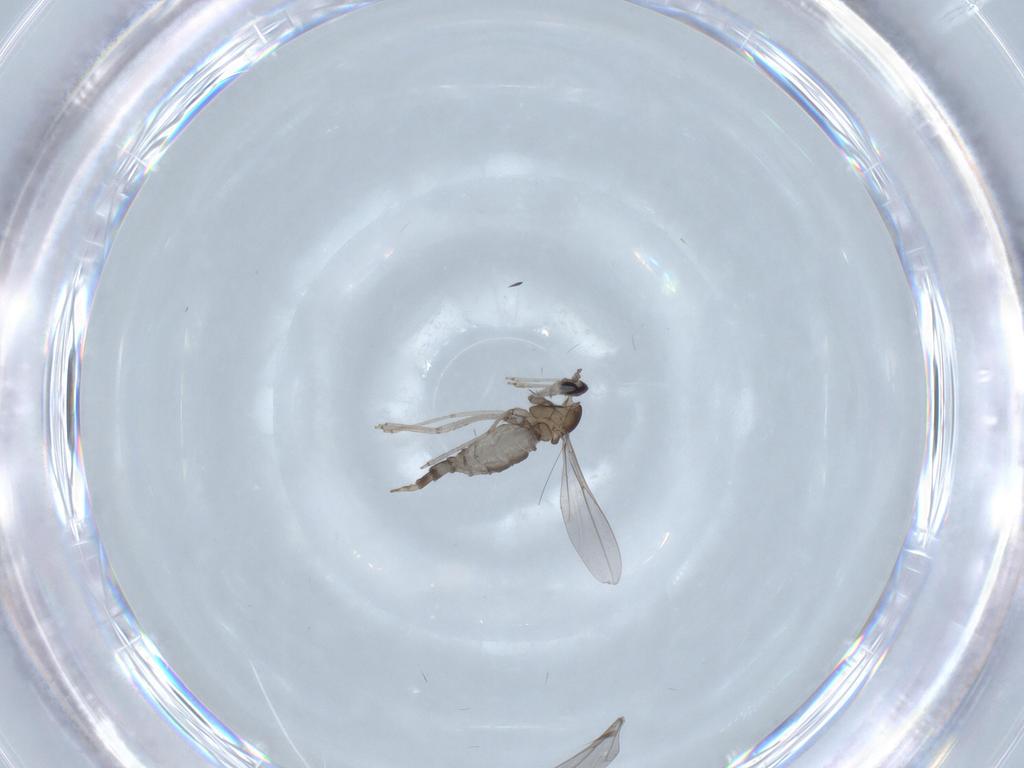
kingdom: Animalia
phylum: Arthropoda
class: Insecta
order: Diptera
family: Cecidomyiidae
